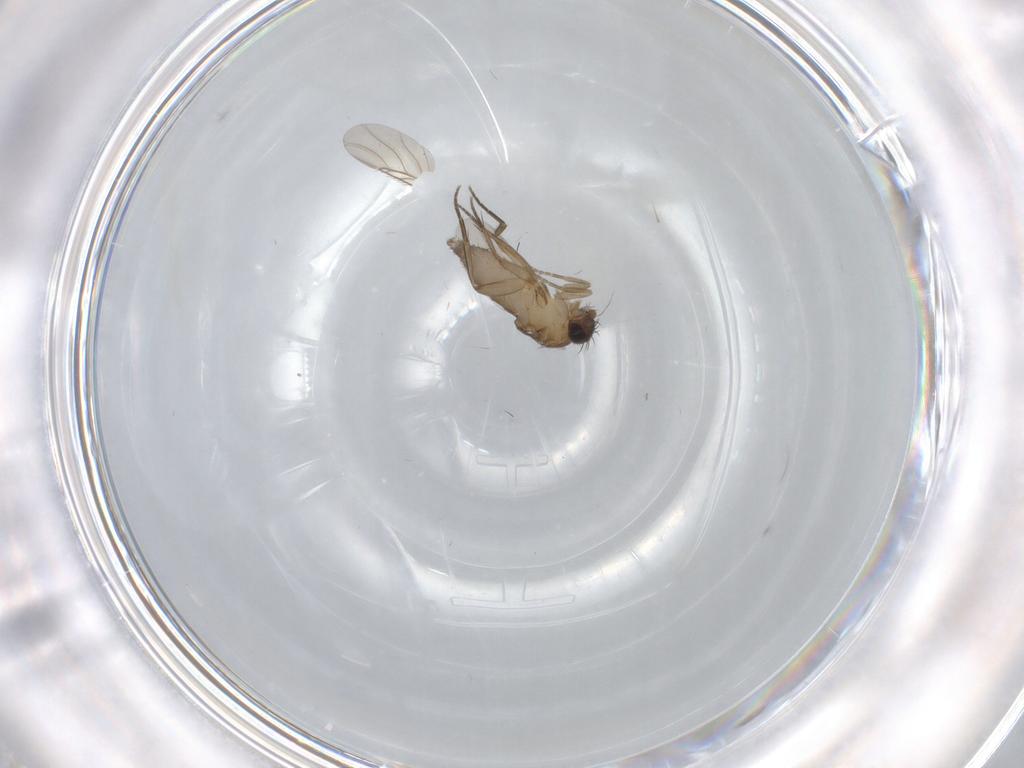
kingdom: Animalia
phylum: Arthropoda
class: Insecta
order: Diptera
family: Phoridae
